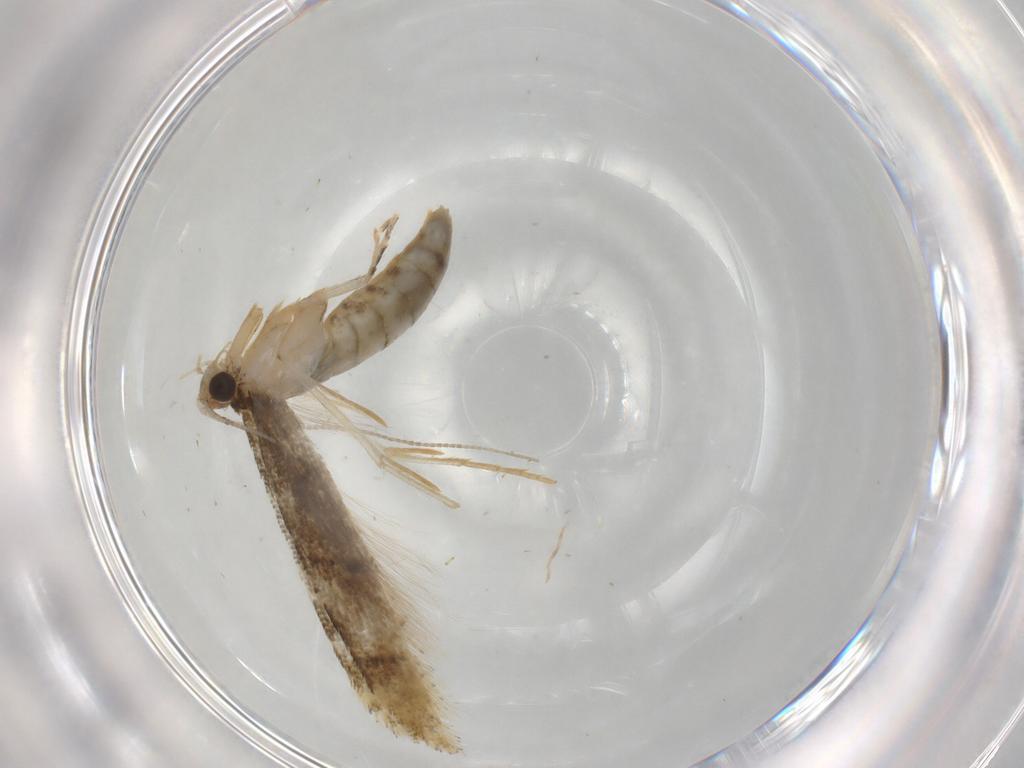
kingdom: Animalia
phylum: Arthropoda
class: Insecta
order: Lepidoptera
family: Tineidae
